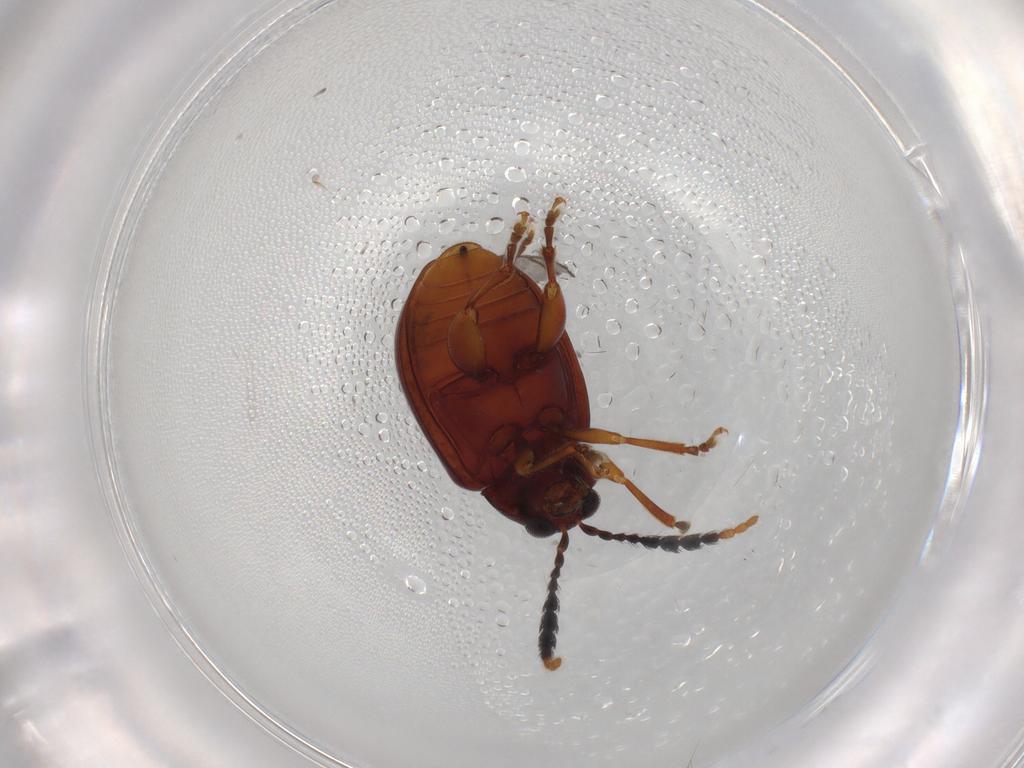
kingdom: Animalia
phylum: Arthropoda
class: Insecta
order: Coleoptera
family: Chrysomelidae
